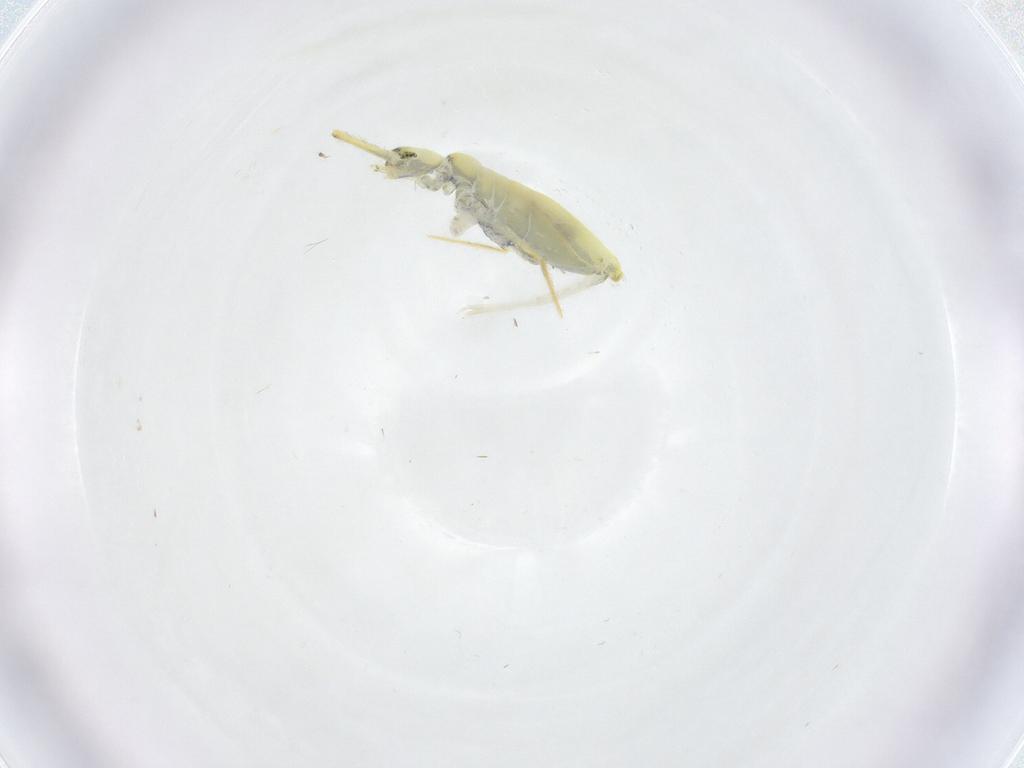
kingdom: Animalia
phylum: Arthropoda
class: Collembola
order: Entomobryomorpha
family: Paronellidae
